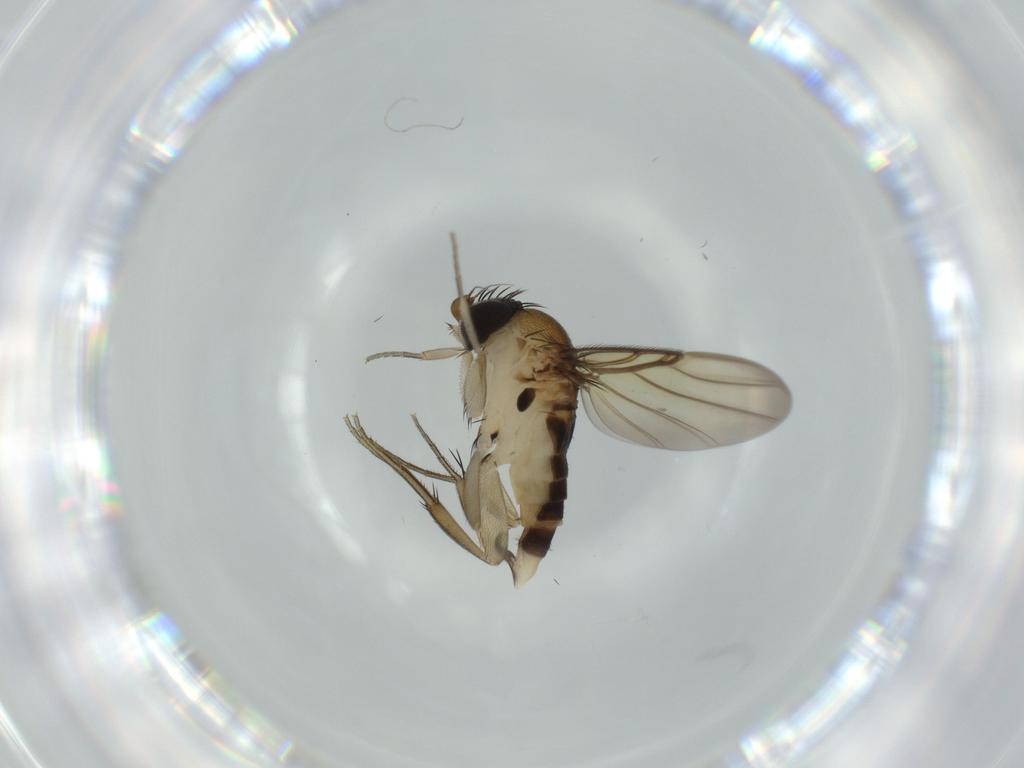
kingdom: Animalia
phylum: Arthropoda
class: Insecta
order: Diptera
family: Phoridae
